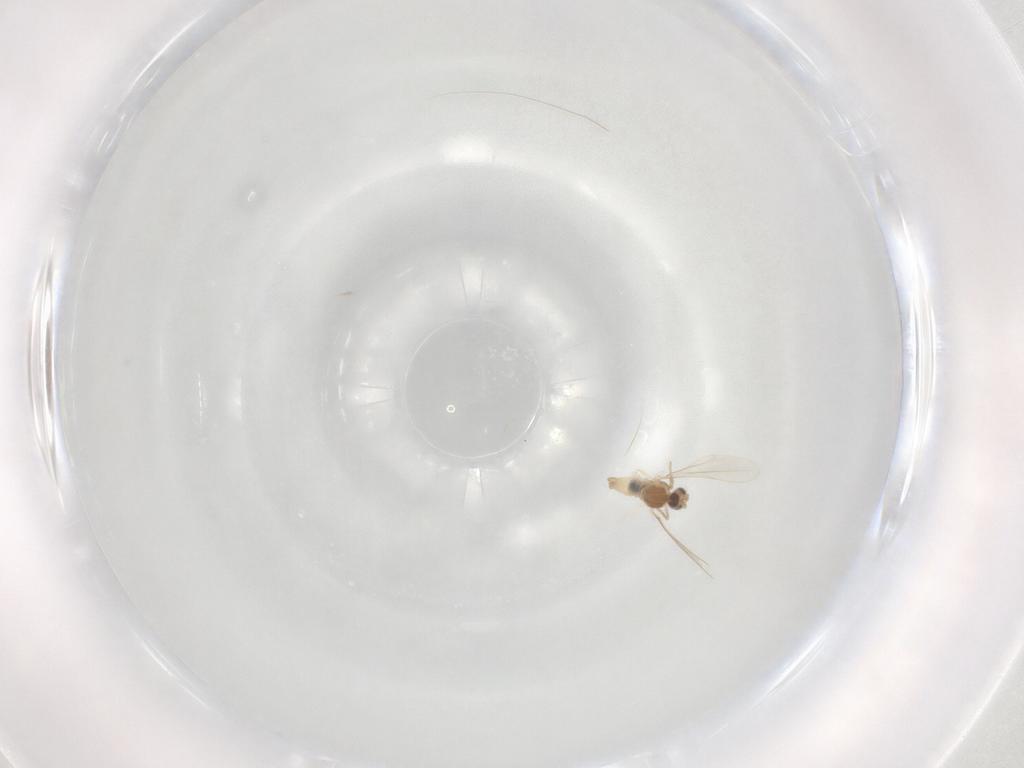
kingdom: Animalia
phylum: Arthropoda
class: Insecta
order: Diptera
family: Cecidomyiidae
